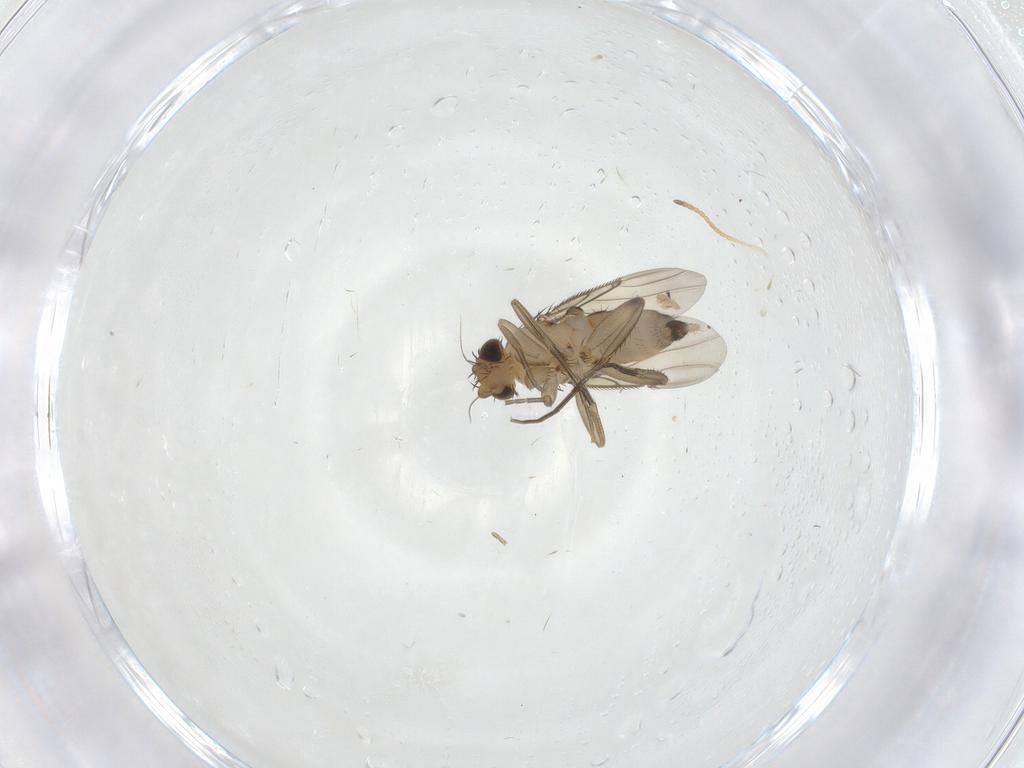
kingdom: Animalia
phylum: Arthropoda
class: Insecta
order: Diptera
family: Phoridae
